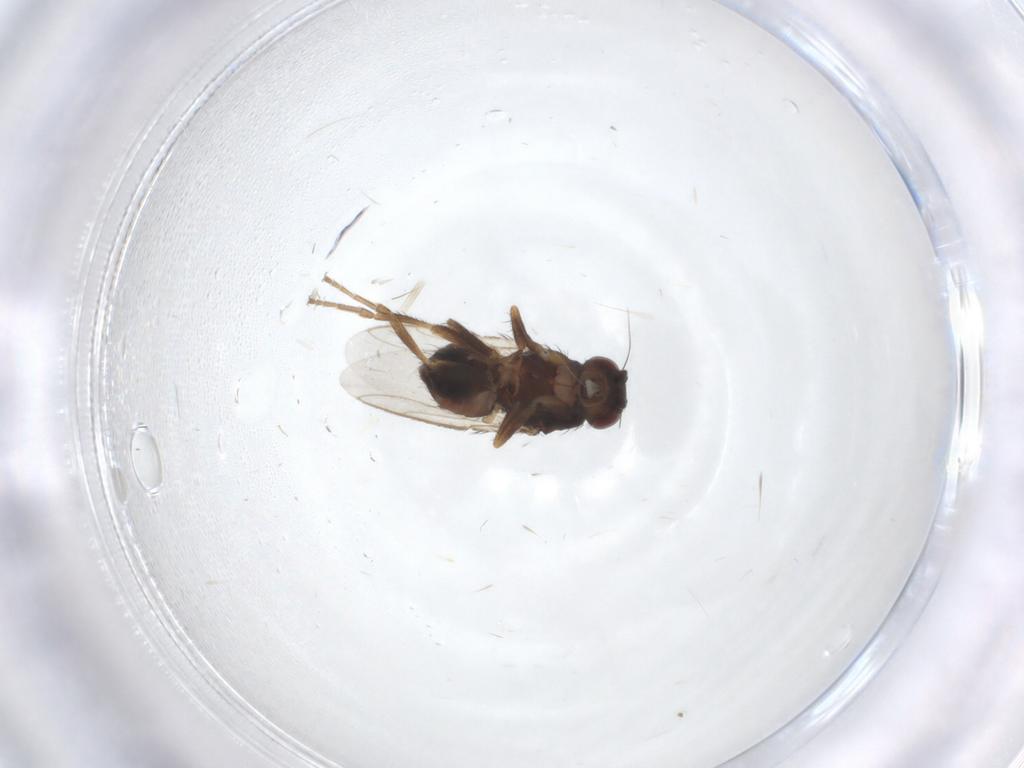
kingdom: Animalia
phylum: Arthropoda
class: Insecta
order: Diptera
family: Sphaeroceridae
